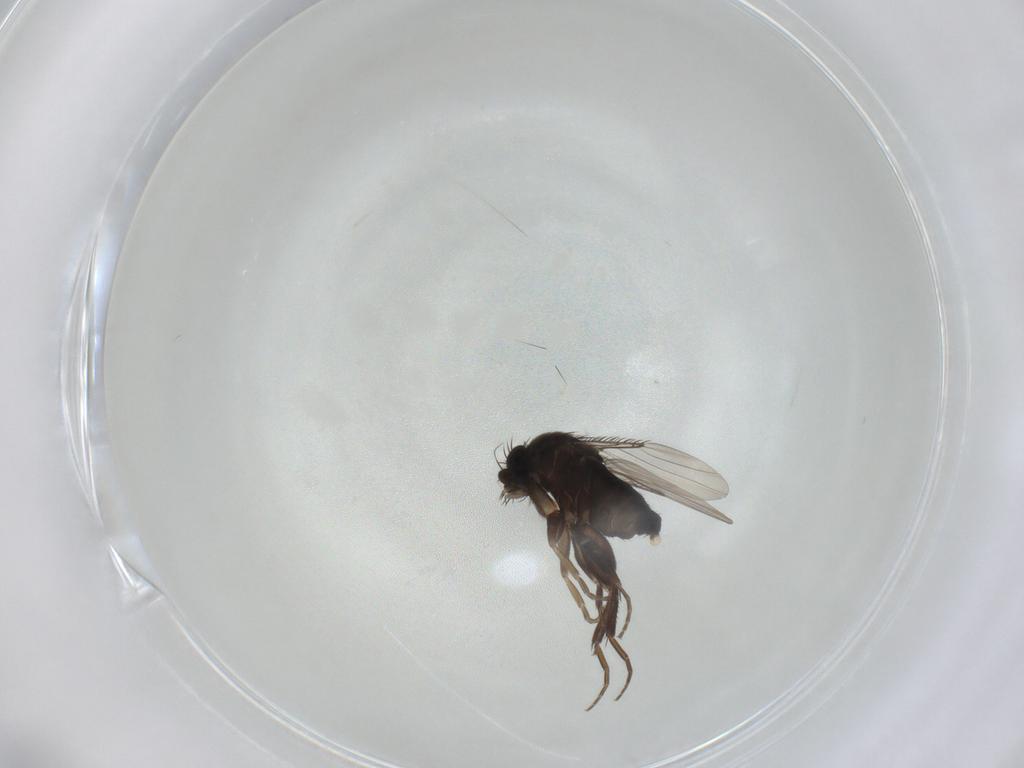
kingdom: Animalia
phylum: Arthropoda
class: Insecta
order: Diptera
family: Phoridae
